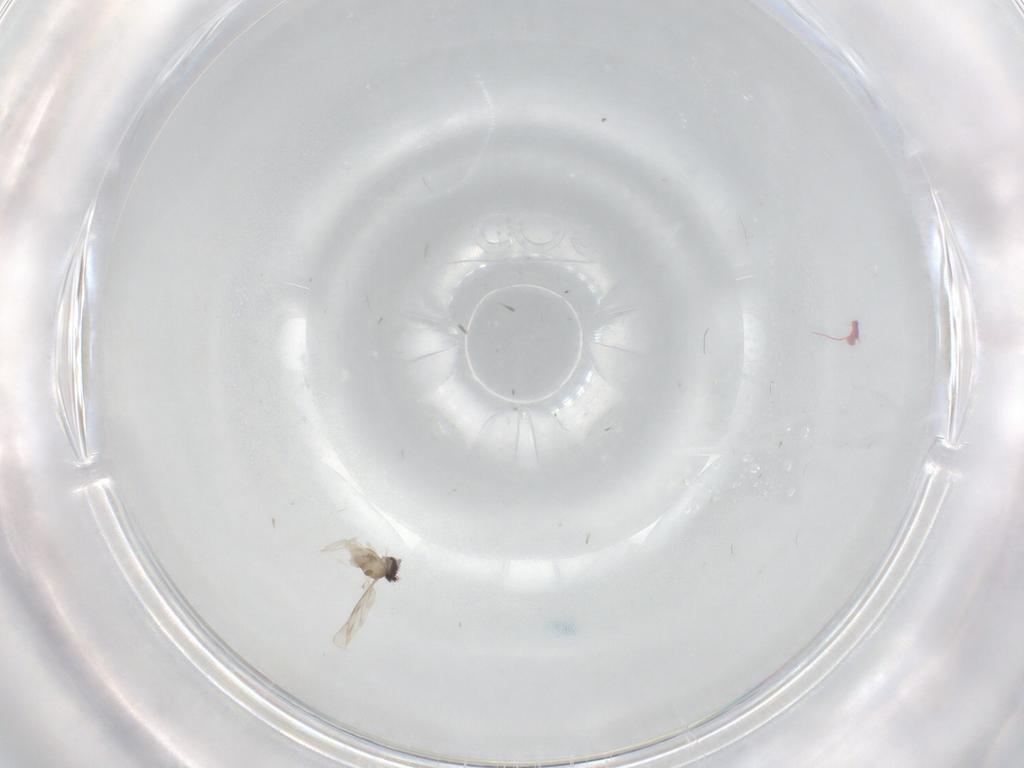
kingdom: Animalia
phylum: Arthropoda
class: Insecta
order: Diptera
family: Cecidomyiidae
